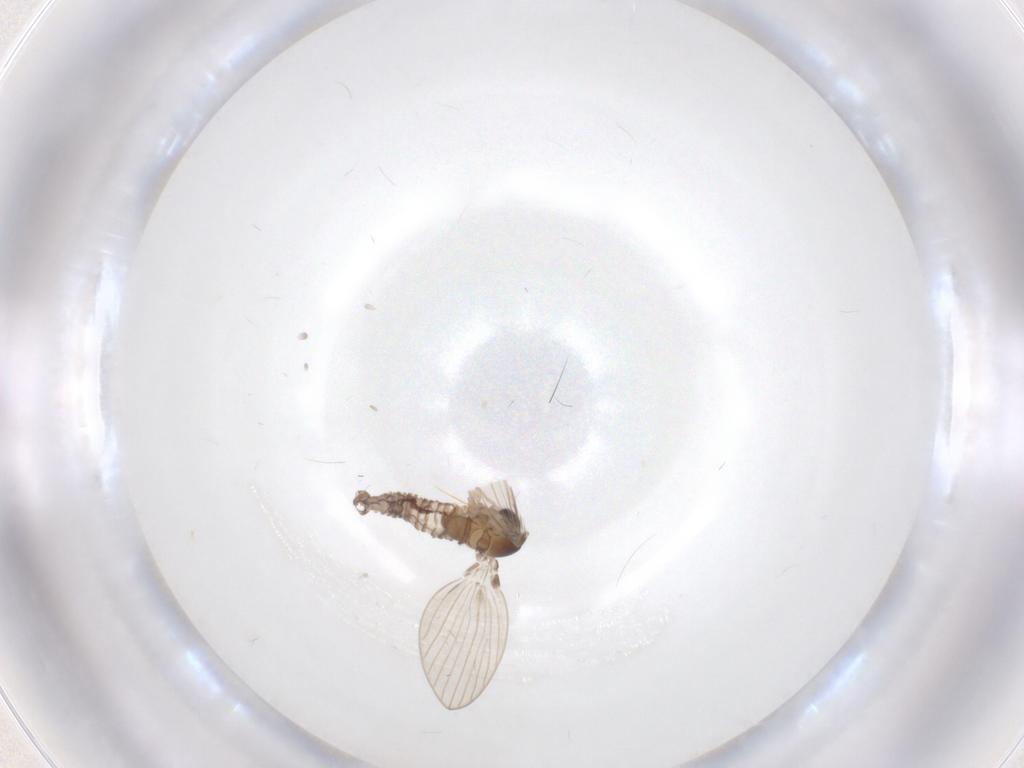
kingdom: Animalia
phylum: Arthropoda
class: Insecta
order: Diptera
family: Psychodidae
